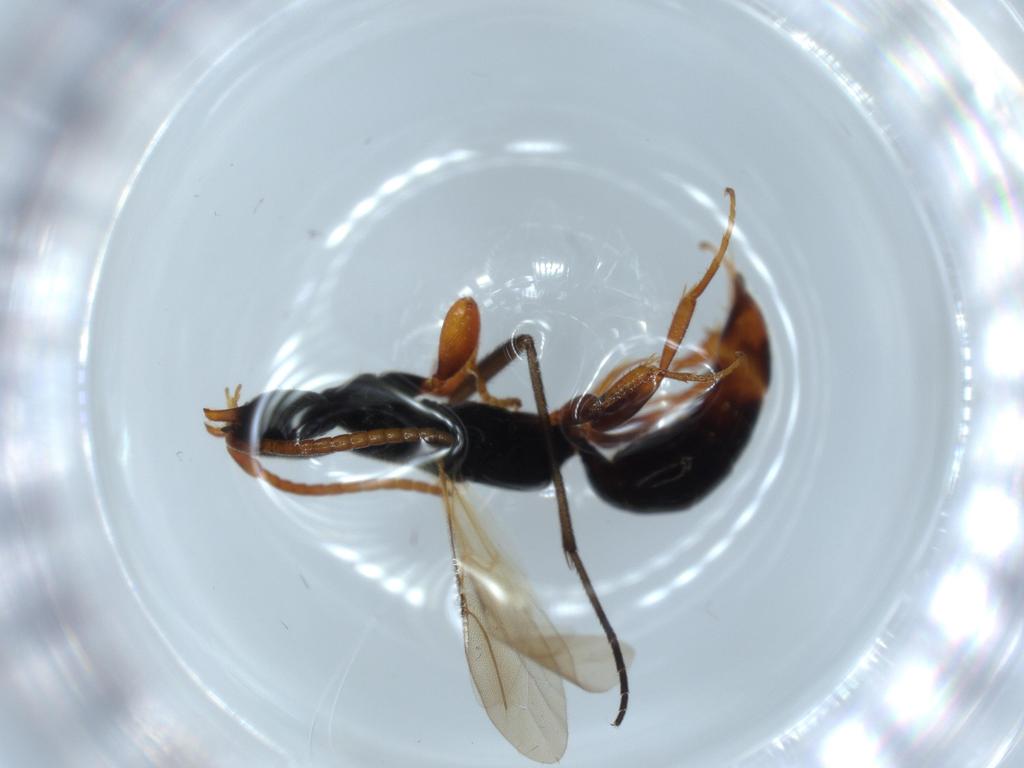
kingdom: Animalia
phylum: Arthropoda
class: Insecta
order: Hymenoptera
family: Bethylidae
